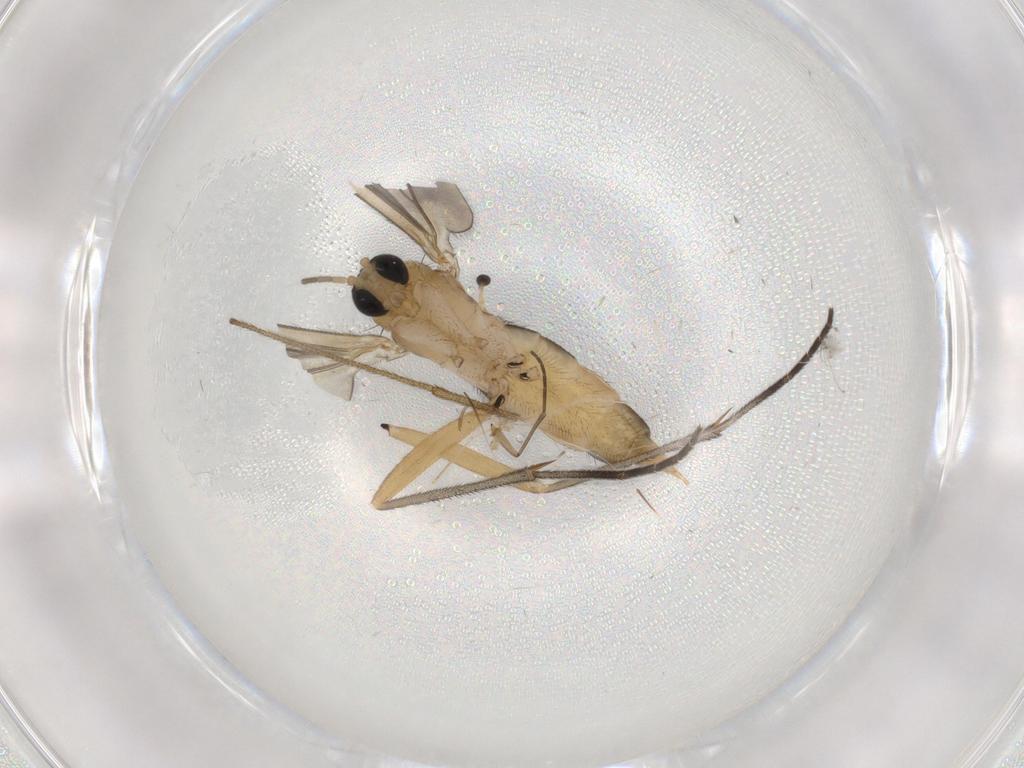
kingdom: Animalia
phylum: Arthropoda
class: Insecta
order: Diptera
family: Sciaridae
